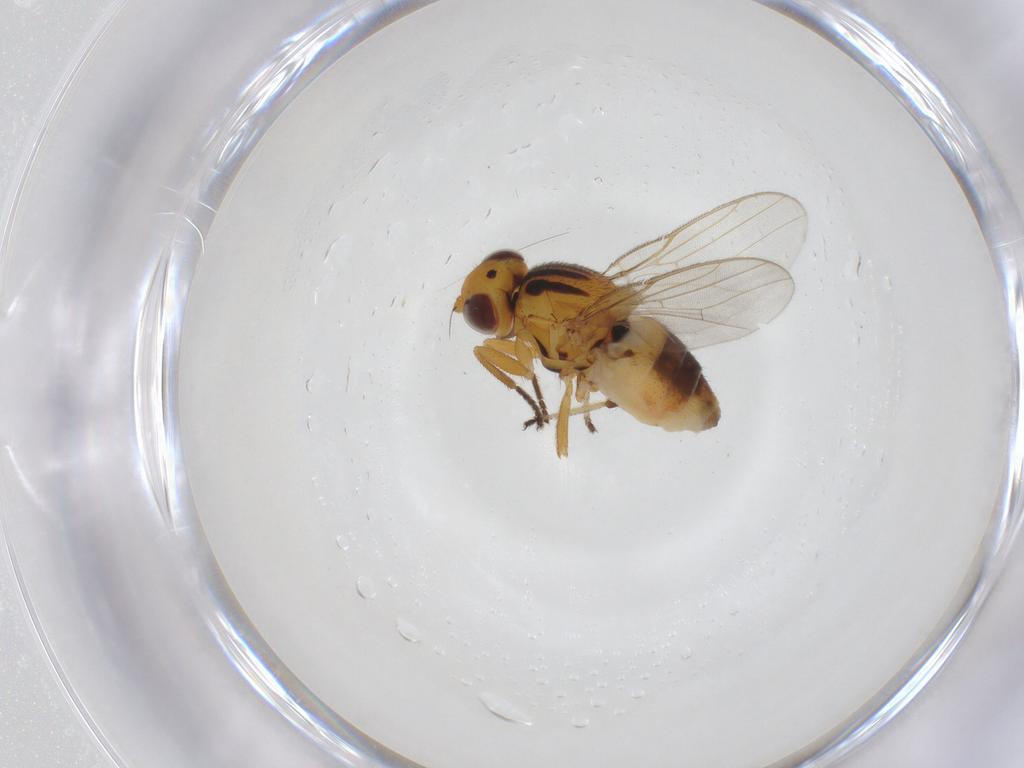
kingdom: Animalia
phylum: Arthropoda
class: Insecta
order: Diptera
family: Chloropidae
